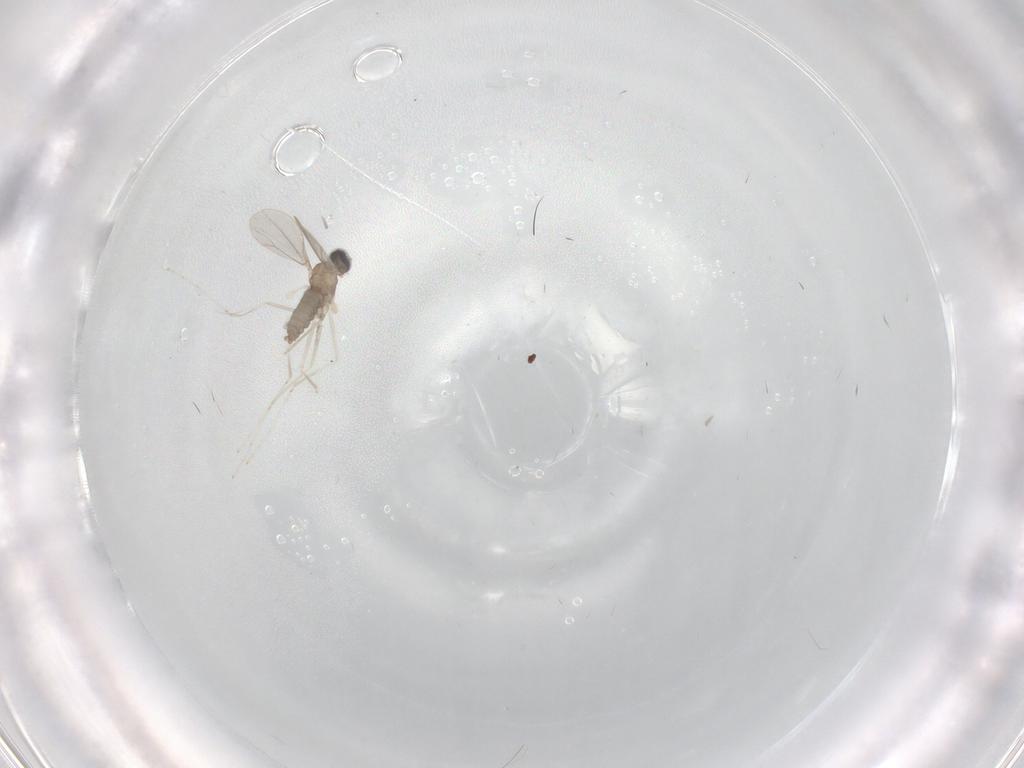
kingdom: Animalia
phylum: Arthropoda
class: Insecta
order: Diptera
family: Cecidomyiidae
